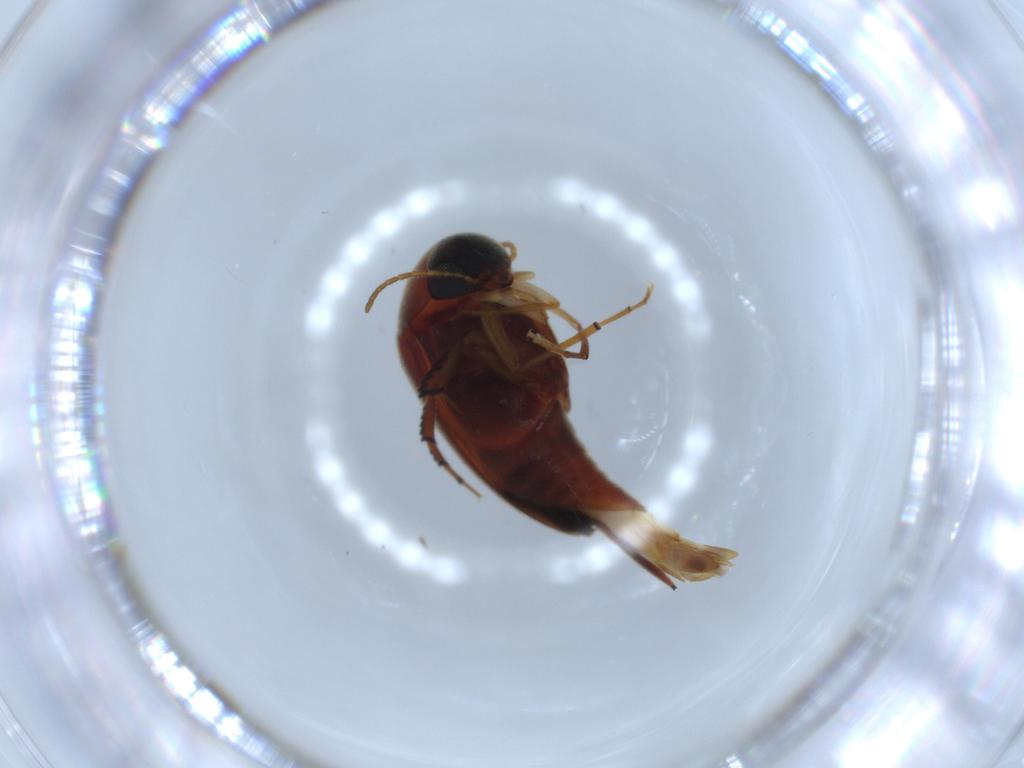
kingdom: Animalia
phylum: Arthropoda
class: Insecta
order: Coleoptera
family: Mordellidae
